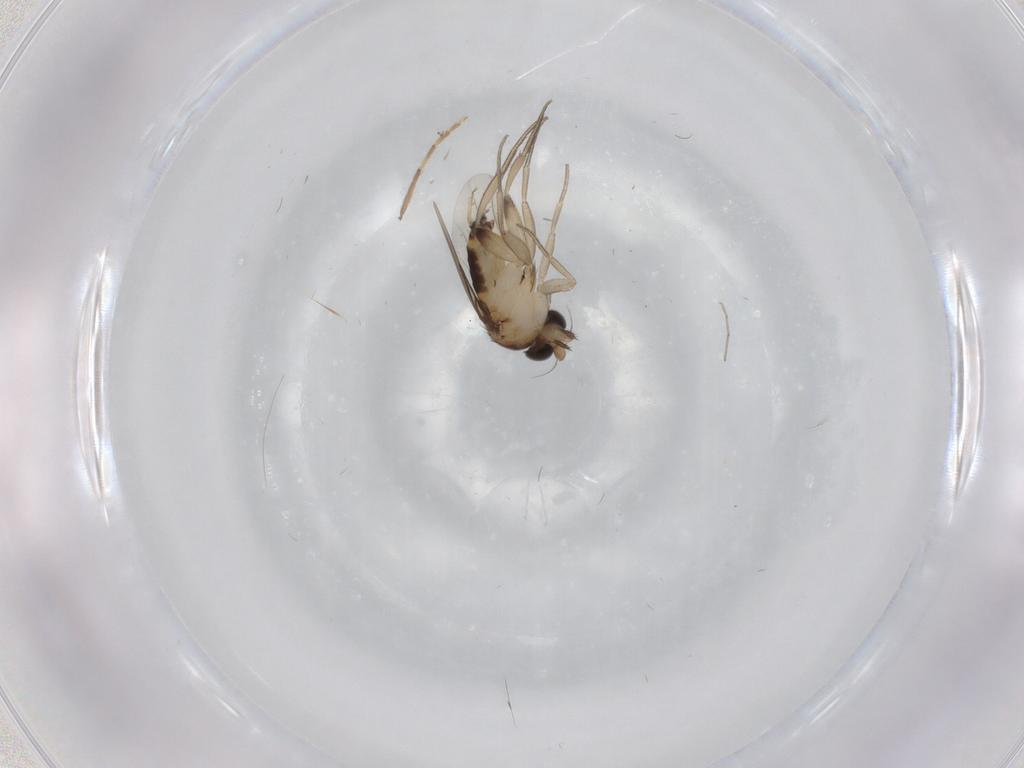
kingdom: Animalia
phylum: Arthropoda
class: Insecta
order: Diptera
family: Phoridae
